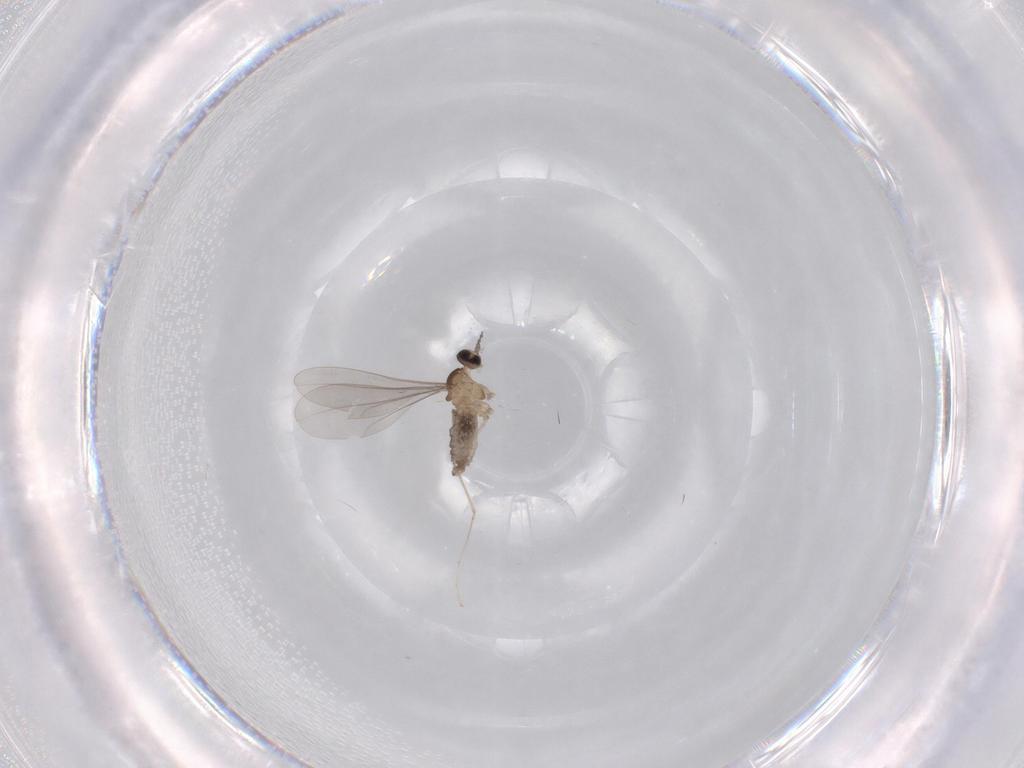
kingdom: Animalia
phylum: Arthropoda
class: Insecta
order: Diptera
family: Cecidomyiidae
